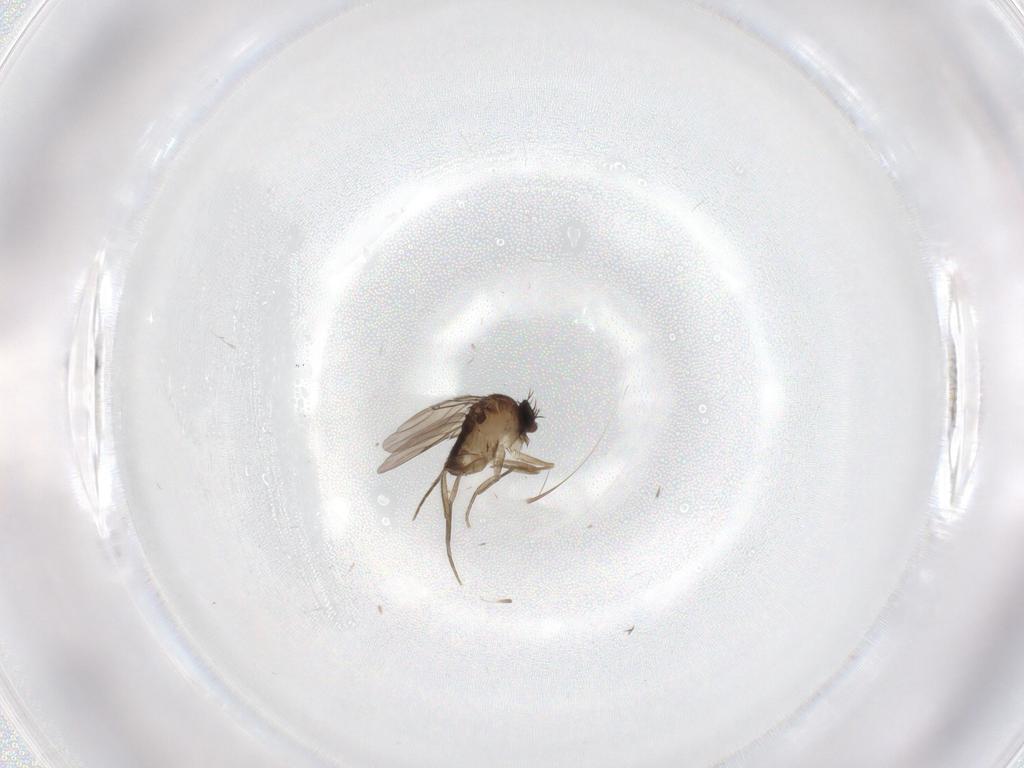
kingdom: Animalia
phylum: Arthropoda
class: Insecta
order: Diptera
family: Phoridae
